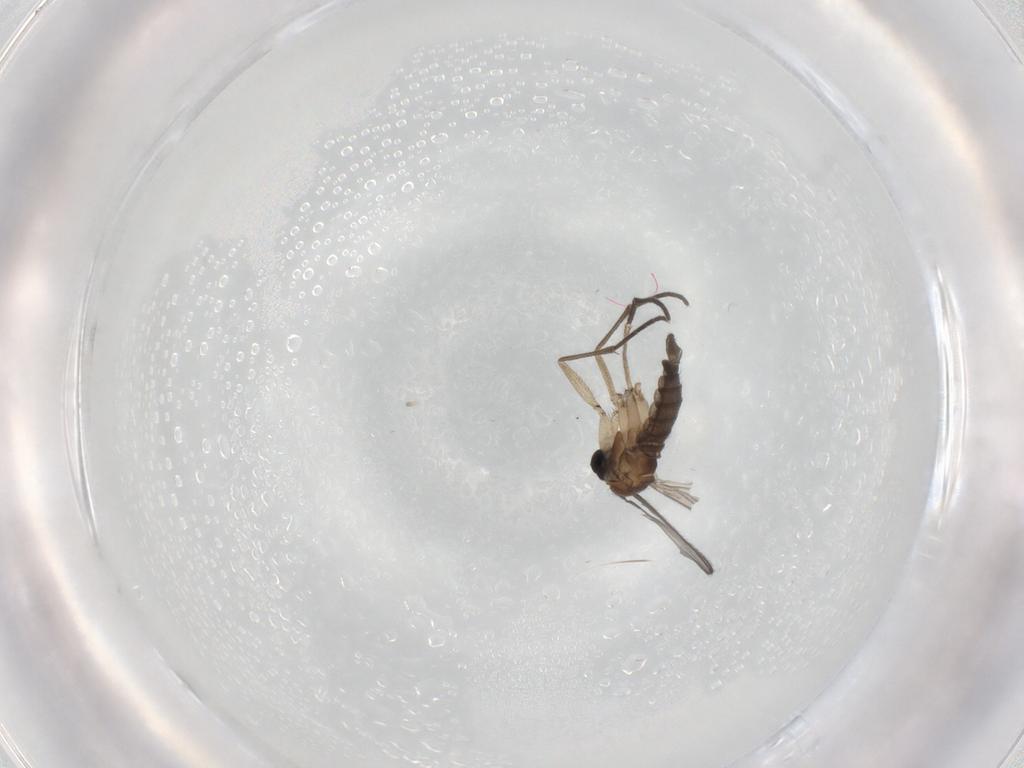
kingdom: Animalia
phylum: Arthropoda
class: Insecta
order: Diptera
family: Sciaridae
